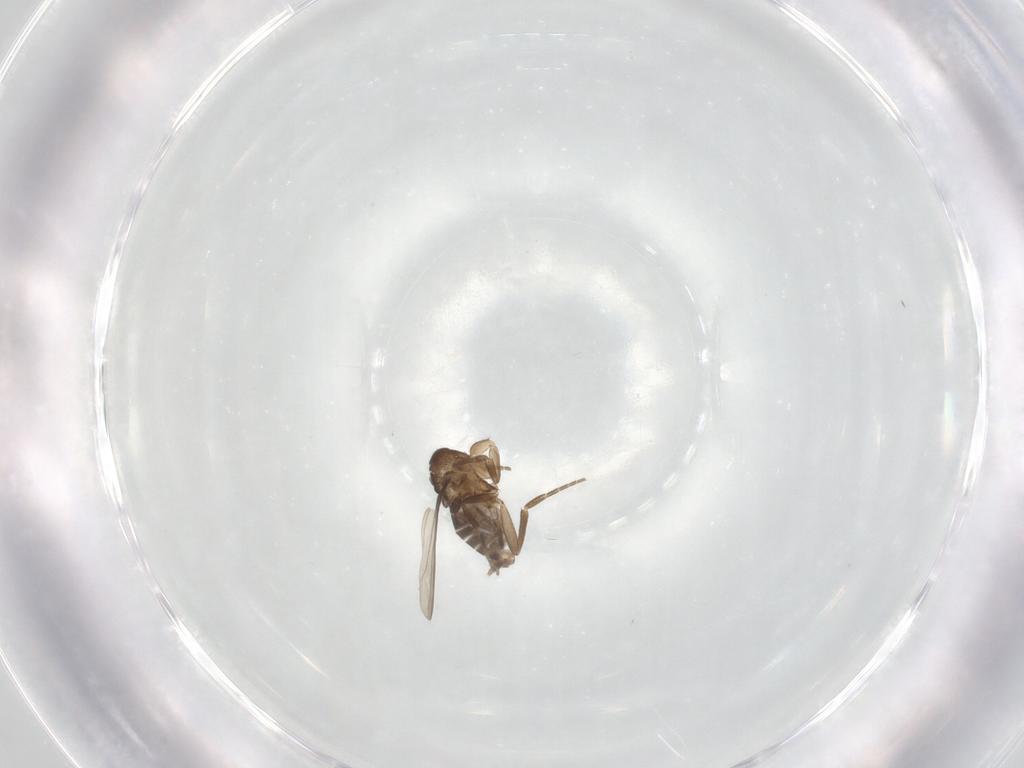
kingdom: Animalia
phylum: Arthropoda
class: Insecta
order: Diptera
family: Cecidomyiidae
